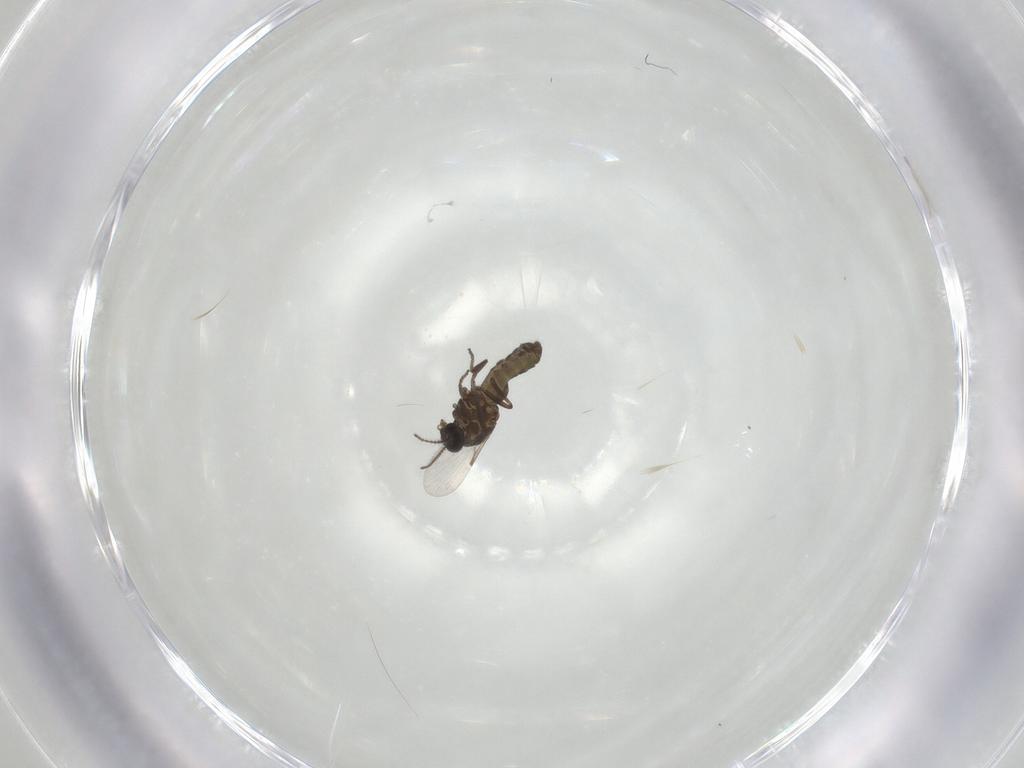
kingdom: Animalia
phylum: Arthropoda
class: Insecta
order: Diptera
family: Ceratopogonidae
